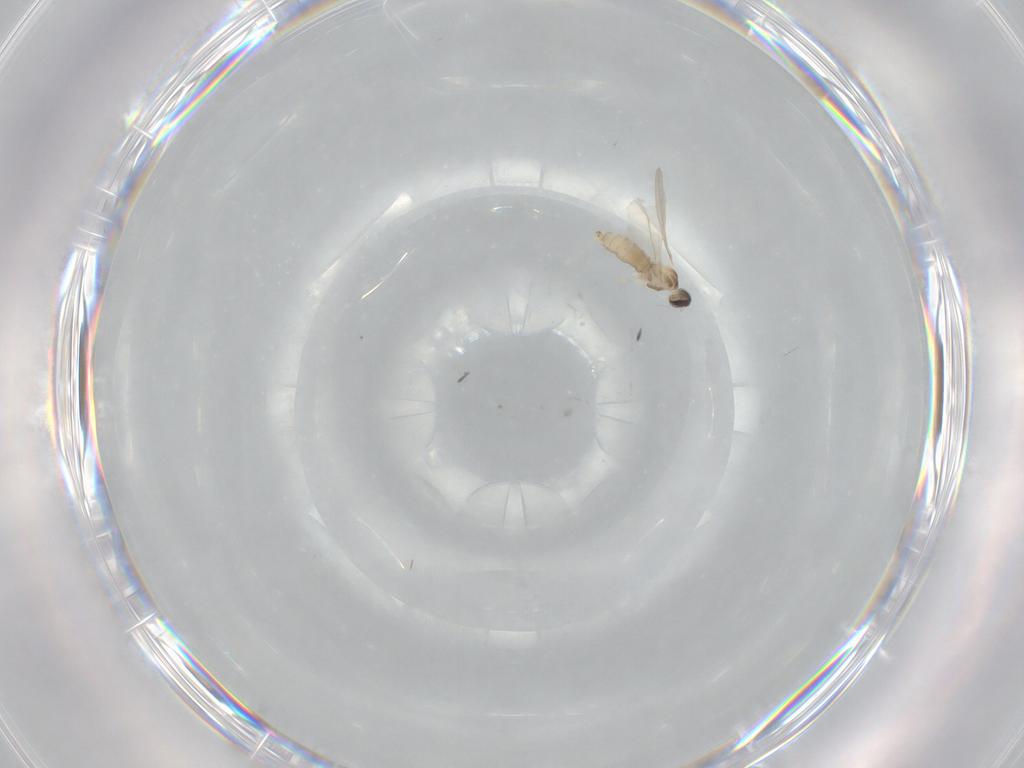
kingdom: Animalia
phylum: Arthropoda
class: Insecta
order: Diptera
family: Cecidomyiidae
